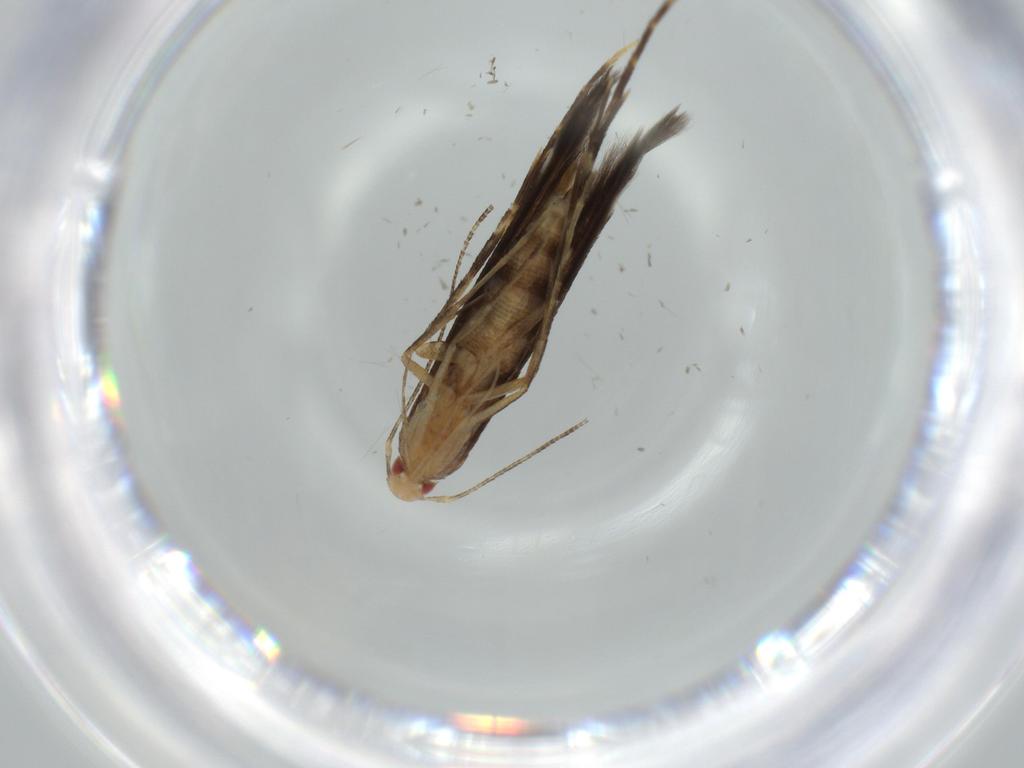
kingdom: Animalia
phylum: Arthropoda
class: Insecta
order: Lepidoptera
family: Cosmopterigidae
